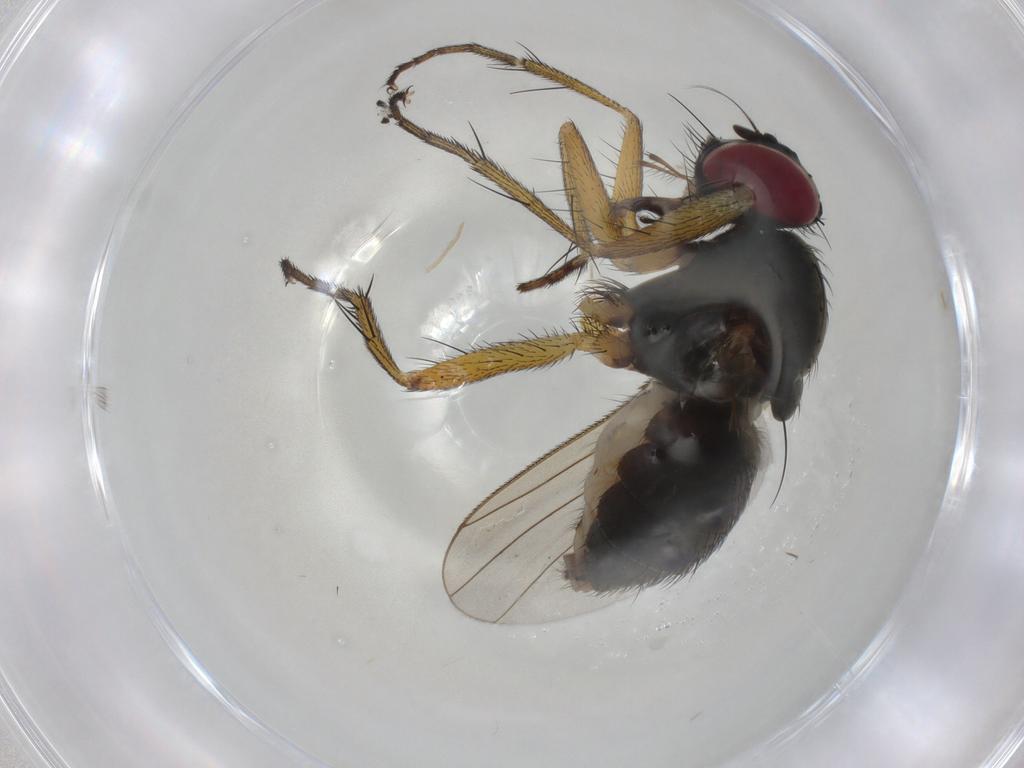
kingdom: Animalia
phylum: Arthropoda
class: Insecta
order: Diptera
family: Muscidae
